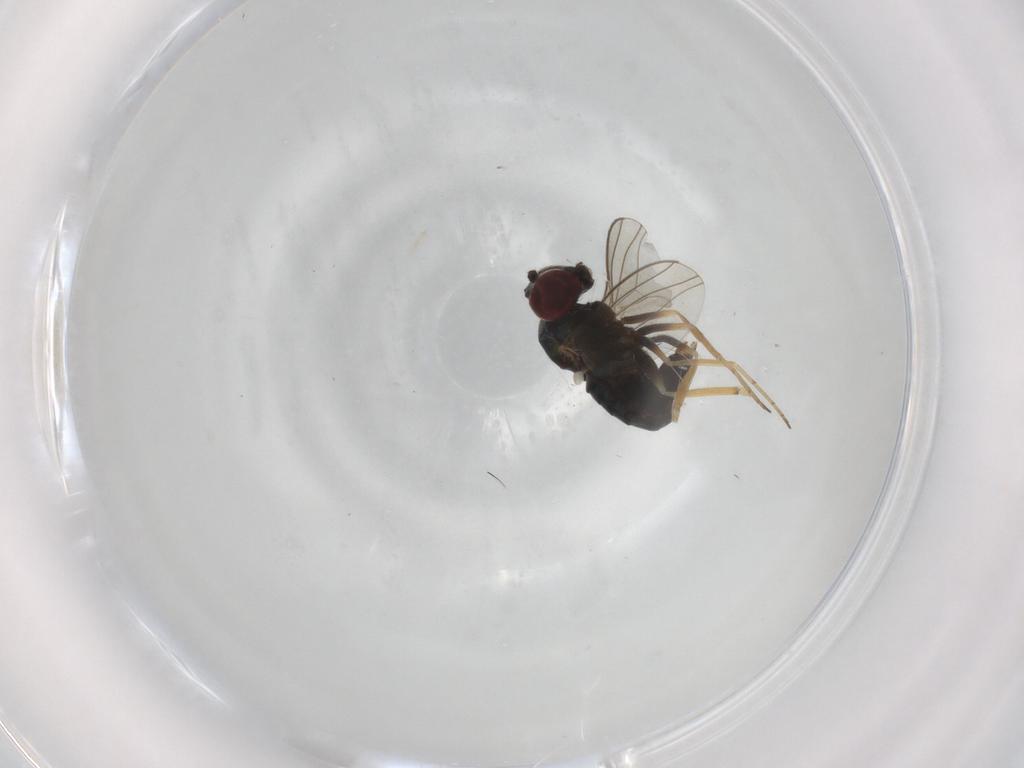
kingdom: Animalia
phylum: Arthropoda
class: Insecta
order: Diptera
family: Dolichopodidae
